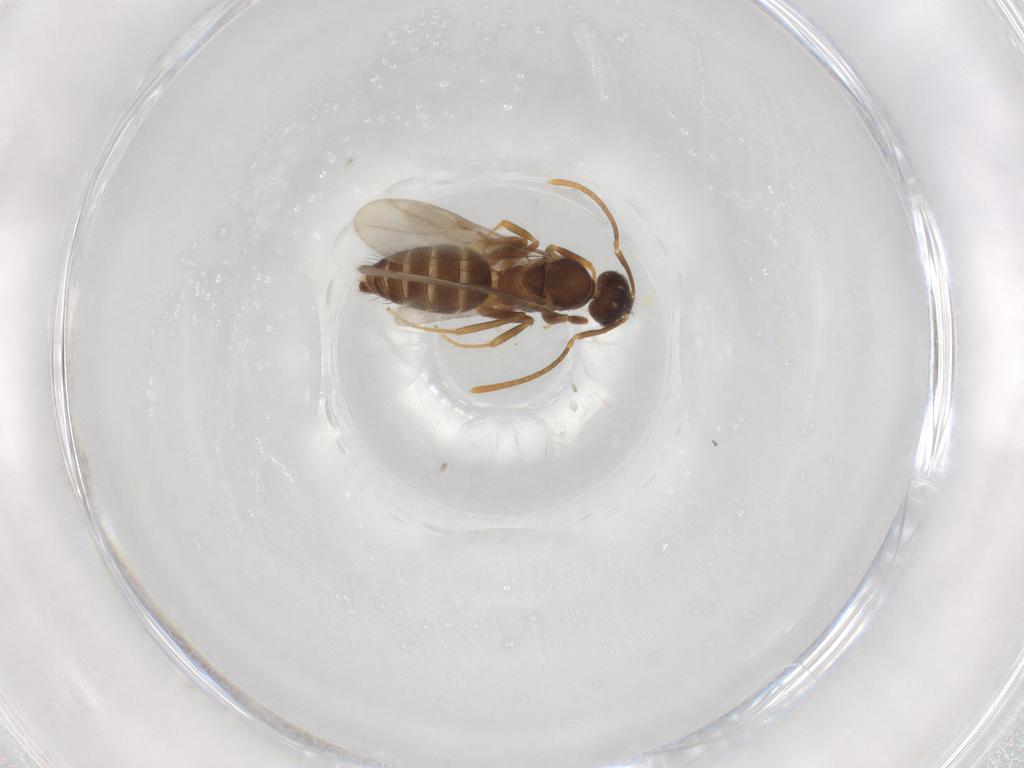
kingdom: Animalia
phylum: Arthropoda
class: Insecta
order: Hymenoptera
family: Formicidae
